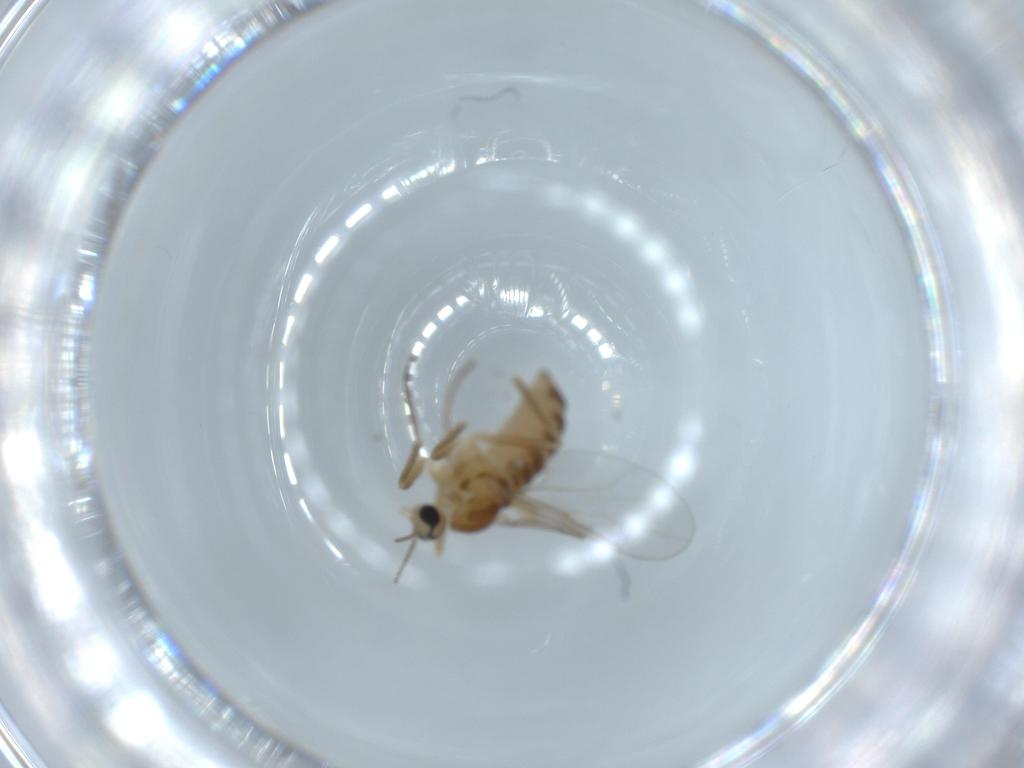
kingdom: Animalia
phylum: Arthropoda
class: Insecta
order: Diptera
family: Cecidomyiidae
